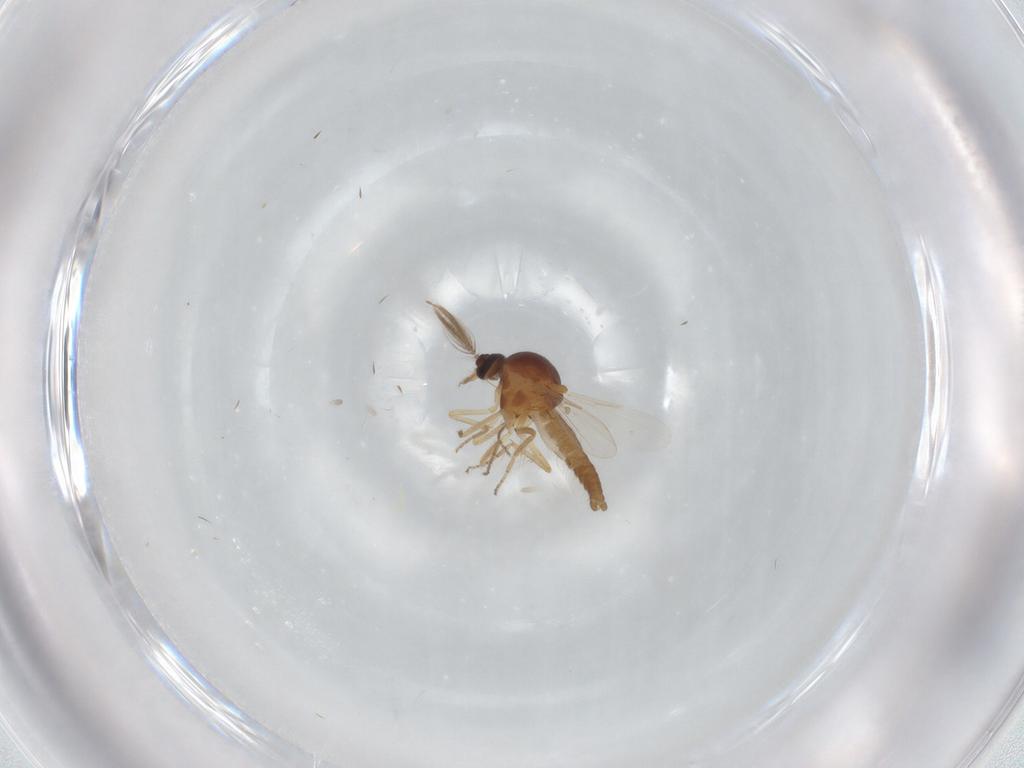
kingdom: Animalia
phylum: Arthropoda
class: Insecta
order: Diptera
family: Ceratopogonidae
